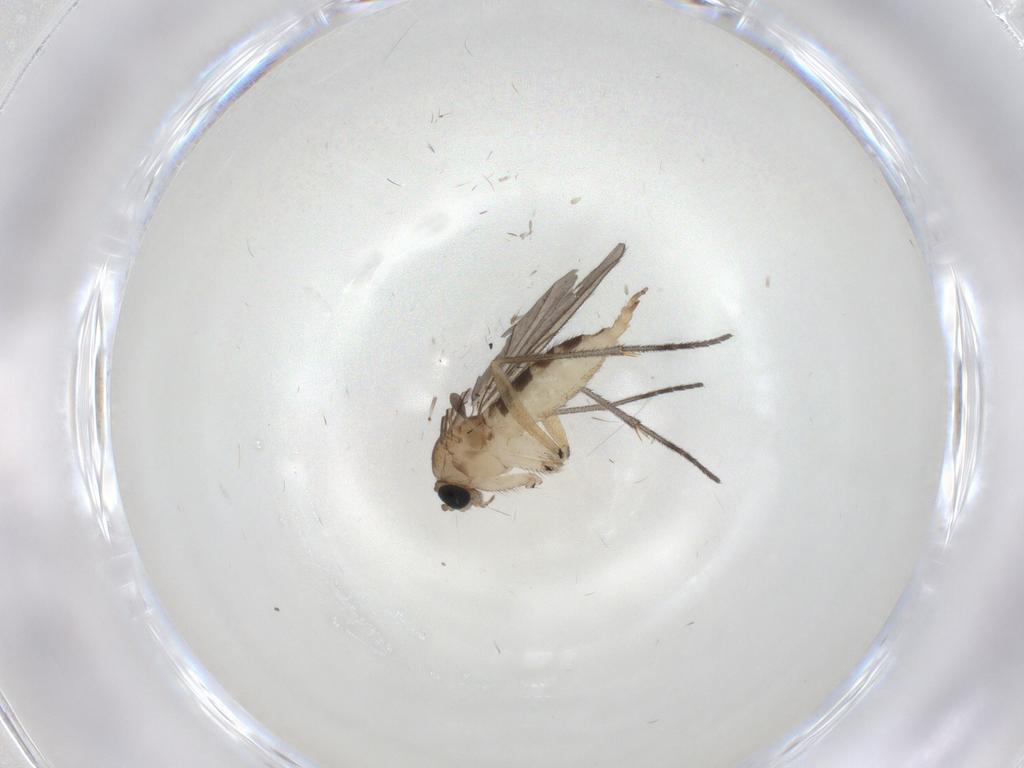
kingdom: Animalia
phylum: Arthropoda
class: Insecta
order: Diptera
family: Sciaridae
